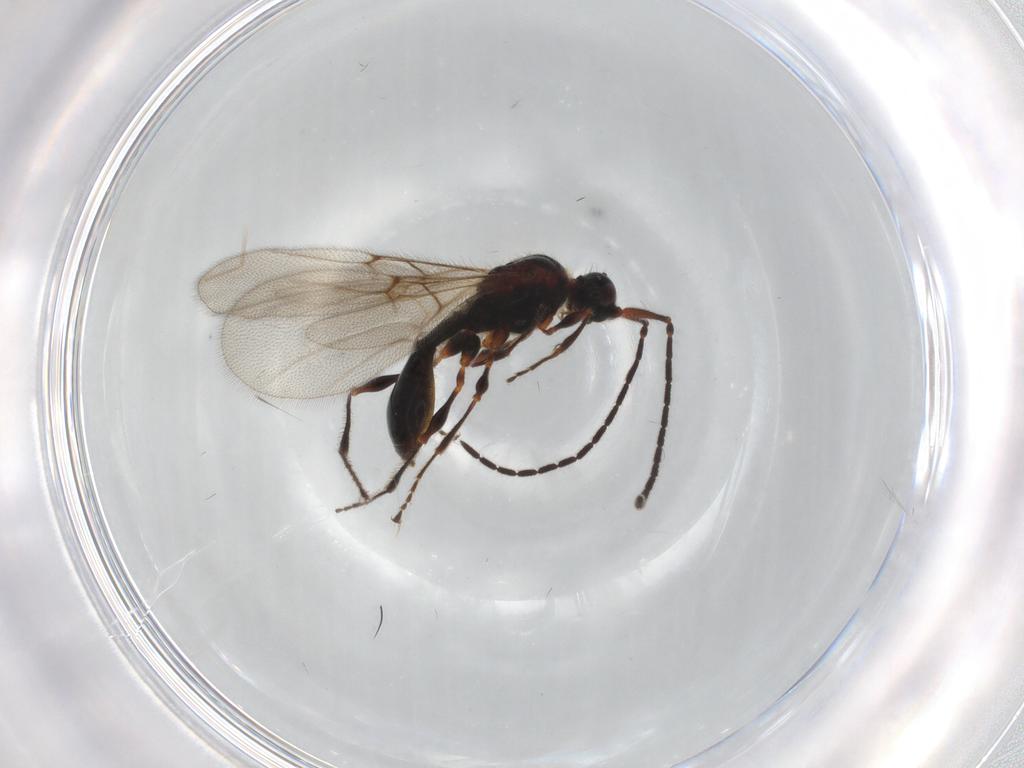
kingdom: Animalia
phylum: Arthropoda
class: Insecta
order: Hymenoptera
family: Diapriidae
